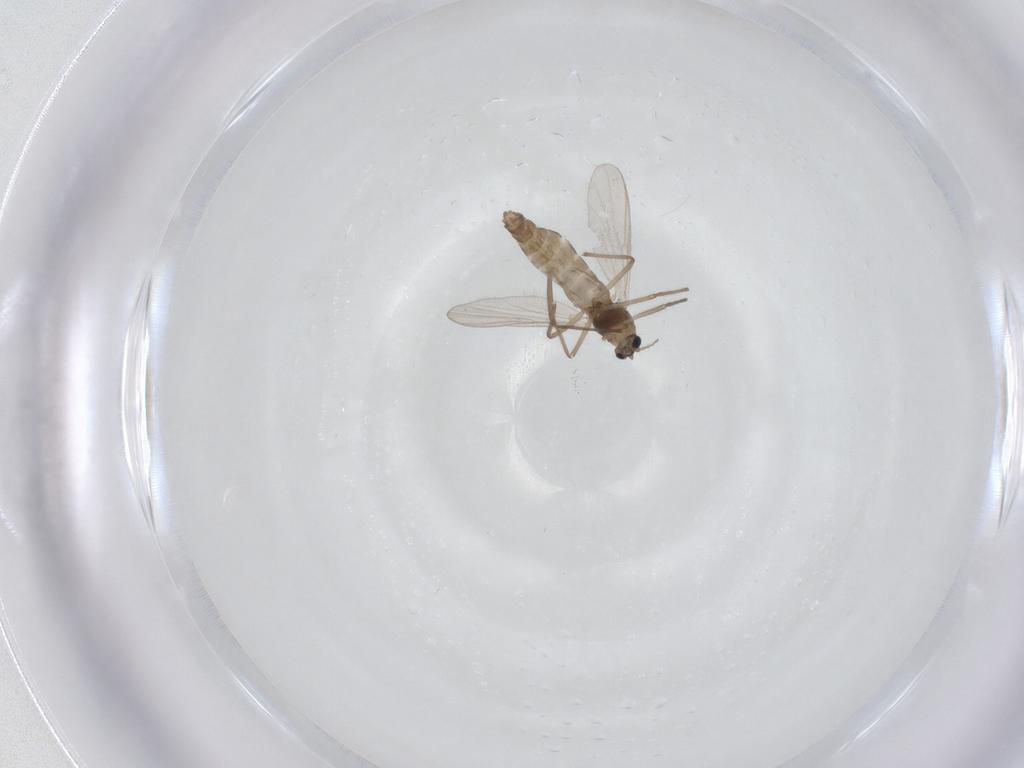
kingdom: Animalia
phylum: Arthropoda
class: Insecta
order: Diptera
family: Chironomidae
